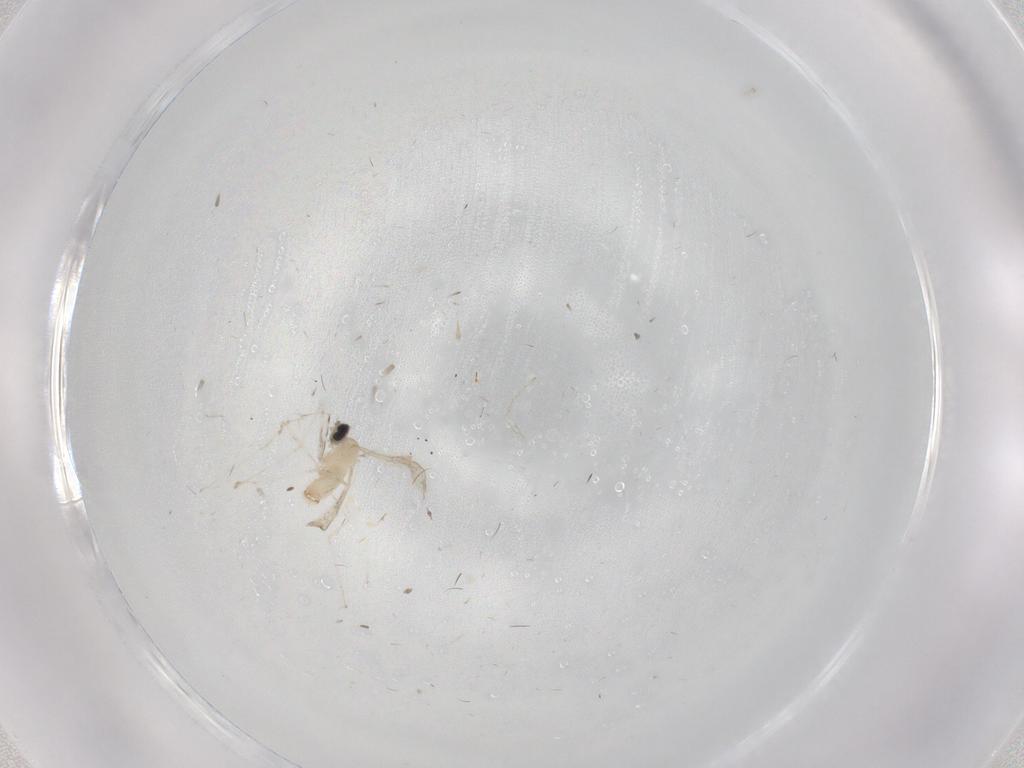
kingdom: Animalia
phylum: Arthropoda
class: Insecta
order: Diptera
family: Cecidomyiidae
